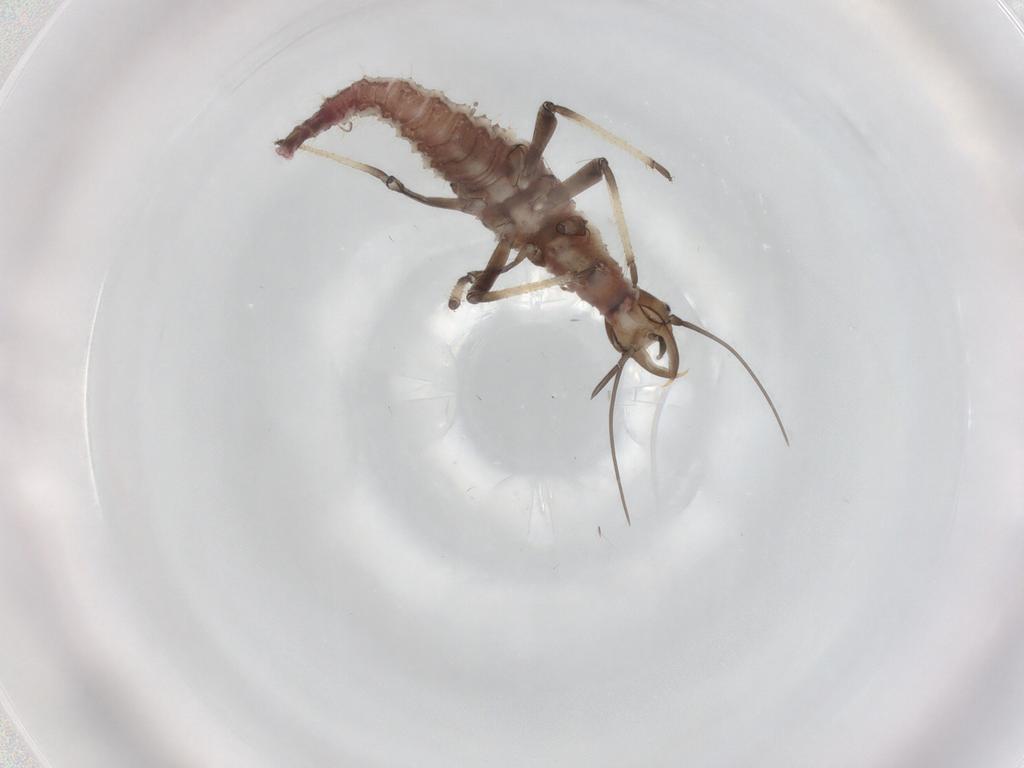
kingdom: Animalia
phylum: Arthropoda
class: Insecta
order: Neuroptera
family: Hemerobiidae
